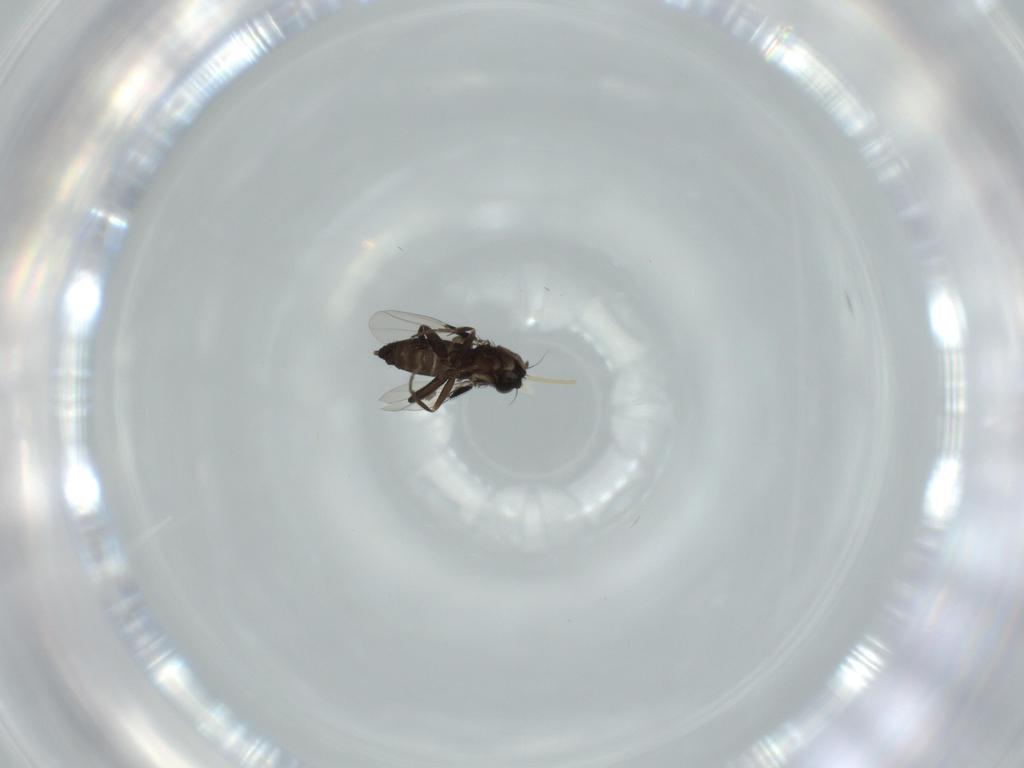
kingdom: Animalia
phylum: Arthropoda
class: Insecta
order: Diptera
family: Phoridae
